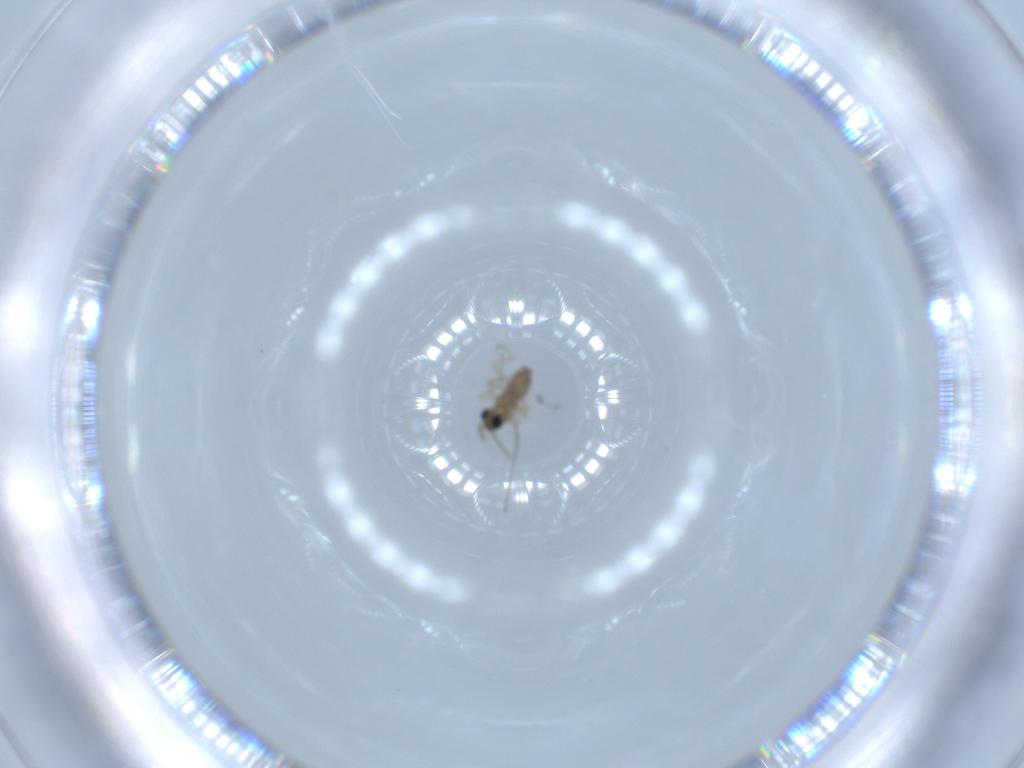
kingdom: Animalia
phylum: Arthropoda
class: Insecta
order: Diptera
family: Cecidomyiidae
